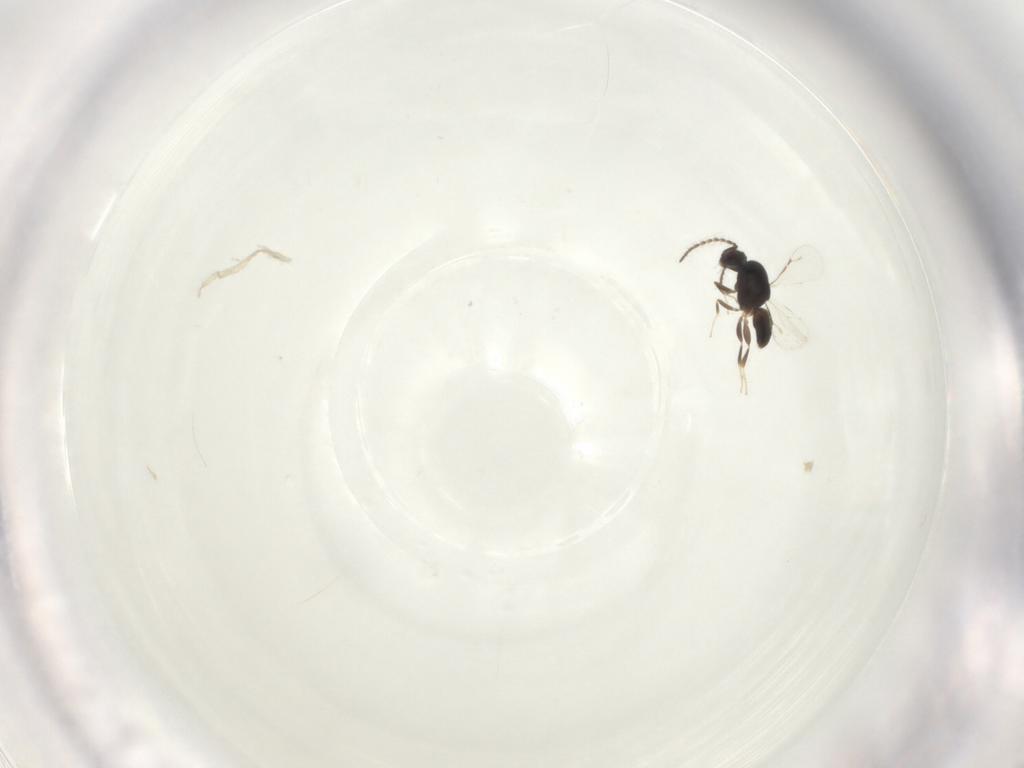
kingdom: Animalia
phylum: Arthropoda
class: Insecta
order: Hymenoptera
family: Ceraphronidae
